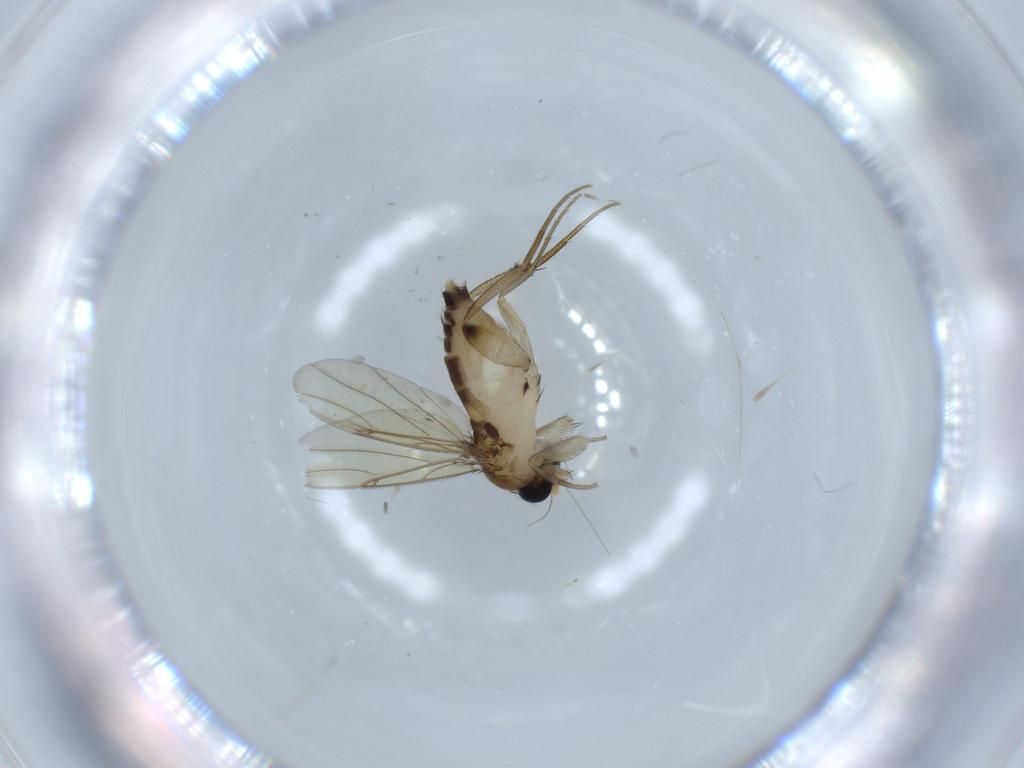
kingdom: Animalia
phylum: Arthropoda
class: Insecta
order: Diptera
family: Phoridae
